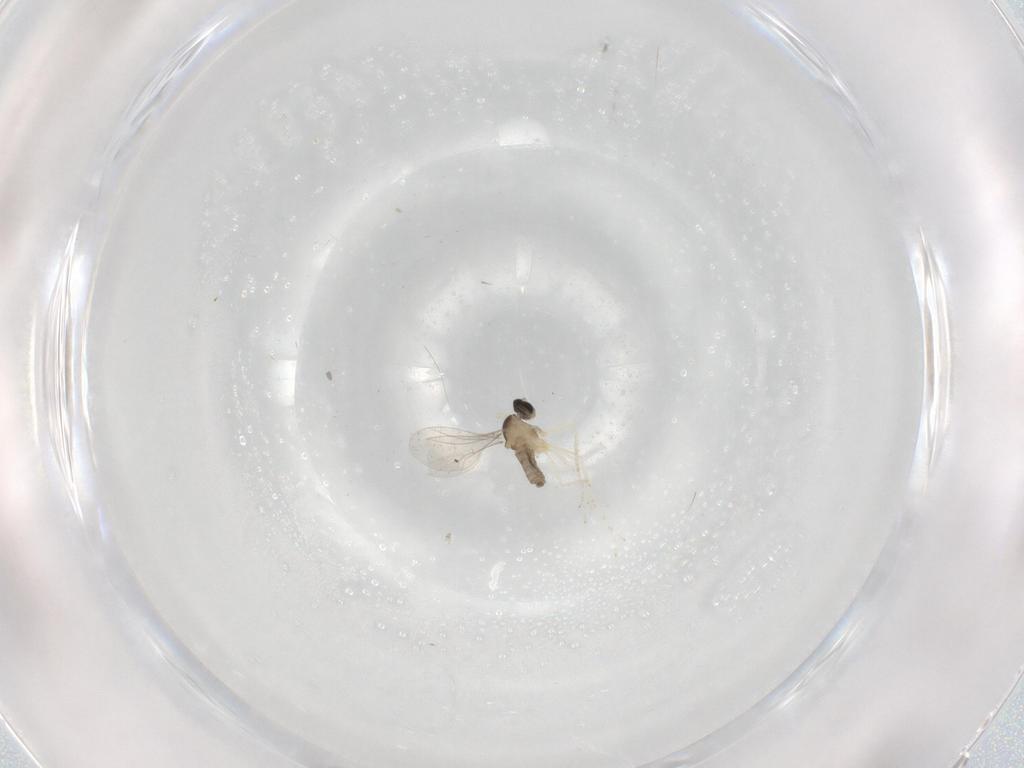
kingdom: Animalia
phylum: Arthropoda
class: Insecta
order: Diptera
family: Cecidomyiidae
